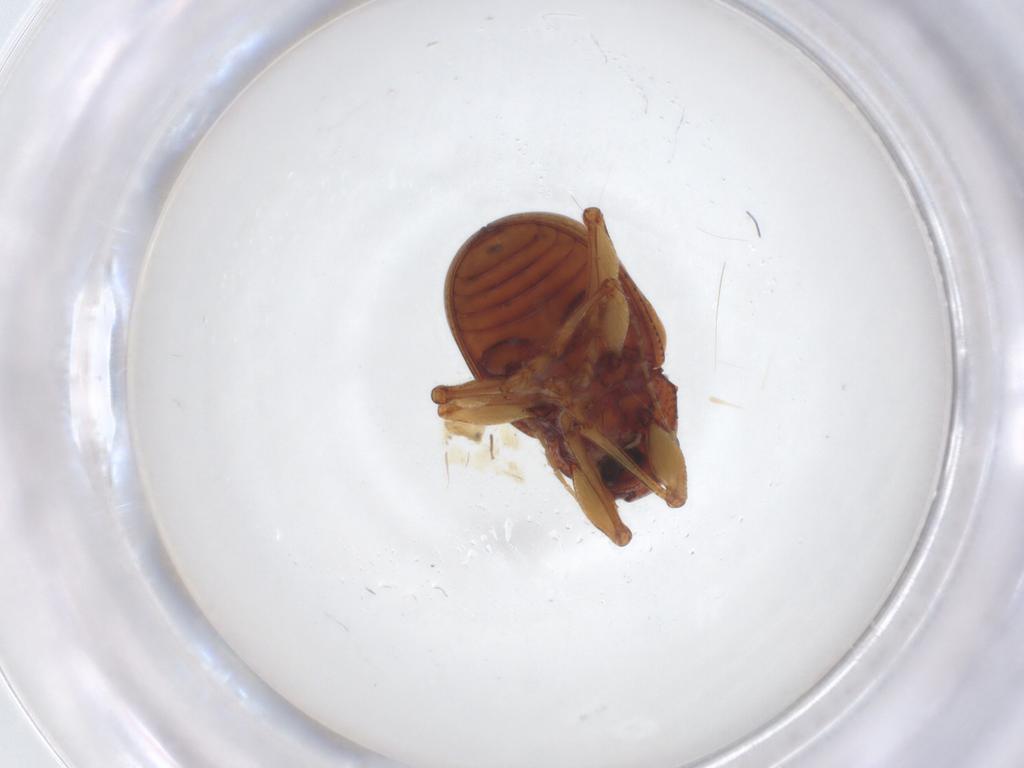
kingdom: Animalia
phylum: Arthropoda
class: Insecta
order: Coleoptera
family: Chrysomelidae
